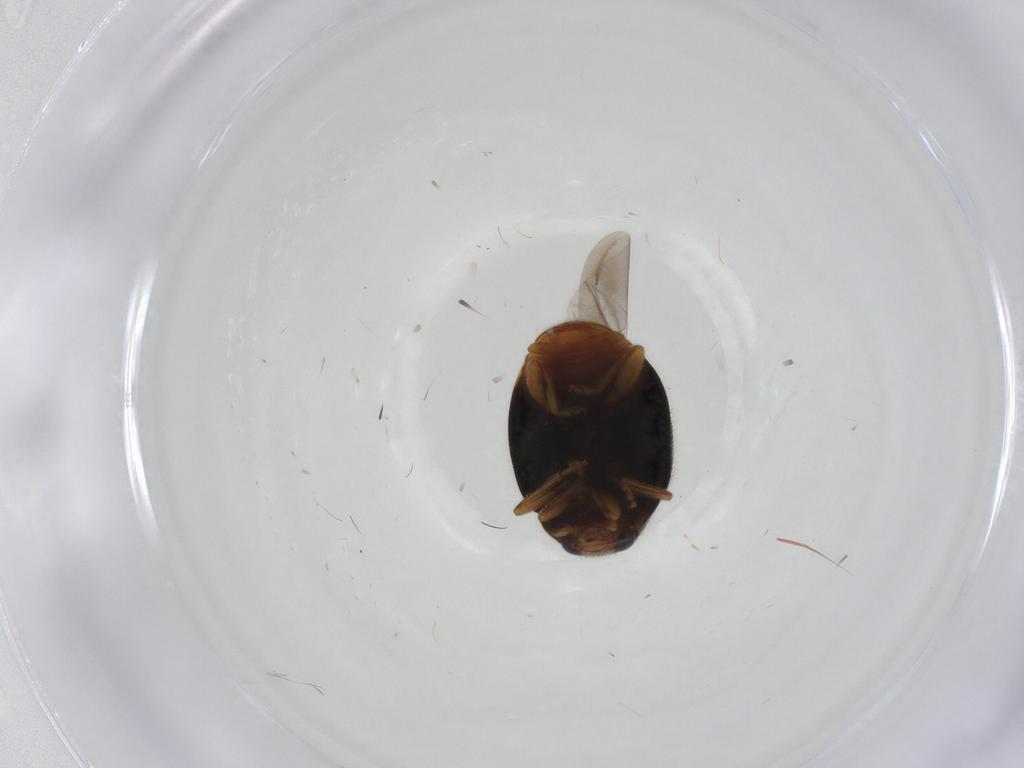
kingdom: Animalia
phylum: Arthropoda
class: Insecta
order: Coleoptera
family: Coccinellidae
